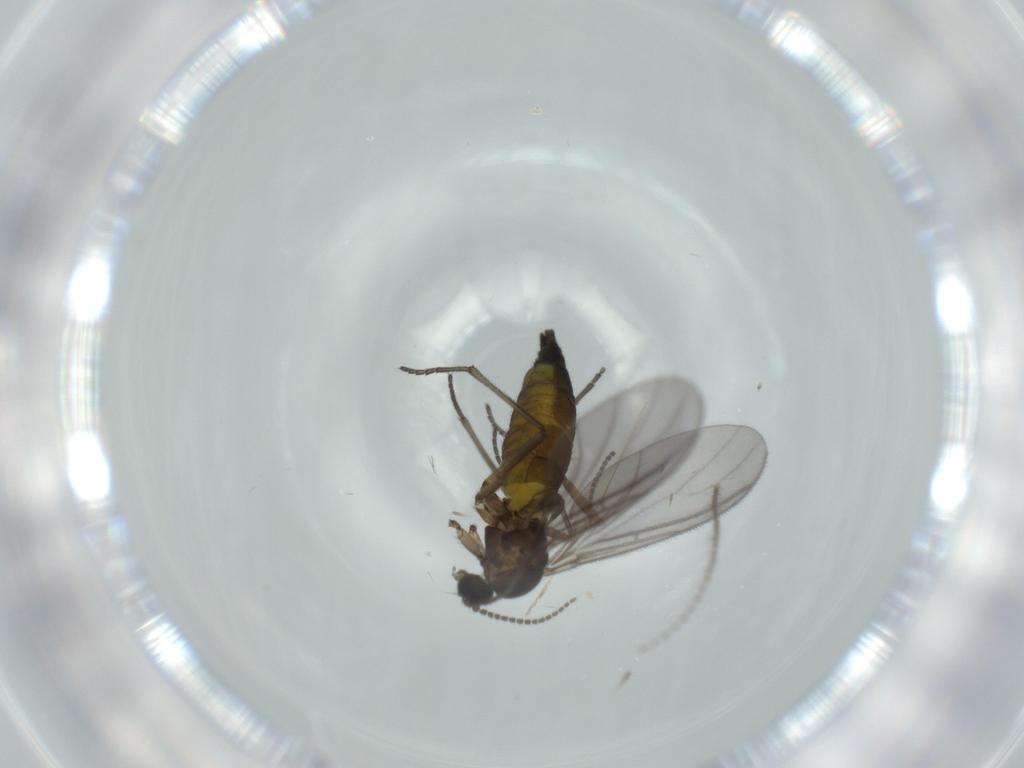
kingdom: Animalia
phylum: Arthropoda
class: Insecta
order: Diptera
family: Sciaridae
